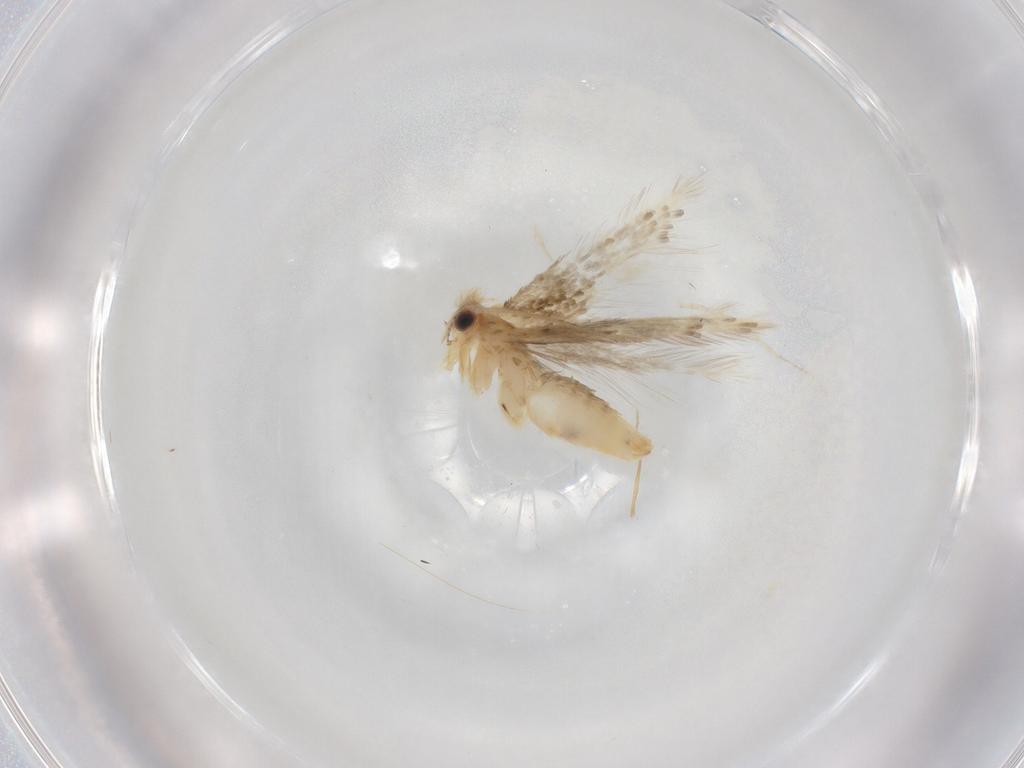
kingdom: Animalia
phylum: Arthropoda
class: Insecta
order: Lepidoptera
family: Nepticulidae
